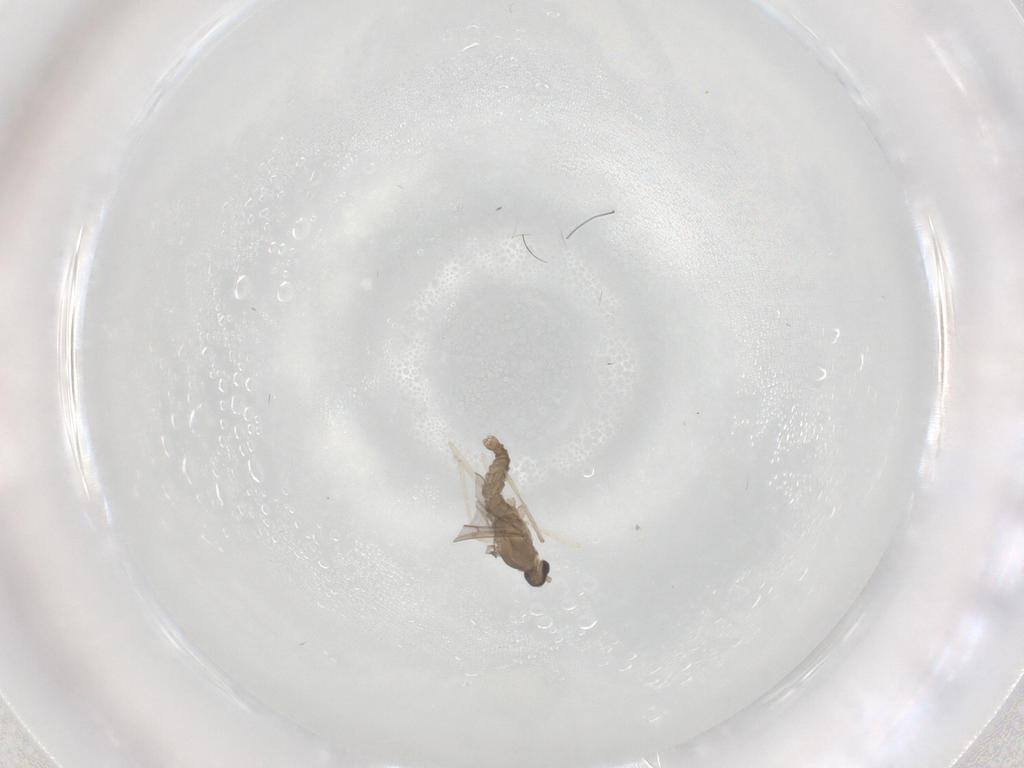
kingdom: Animalia
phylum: Arthropoda
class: Insecta
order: Diptera
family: Cecidomyiidae
